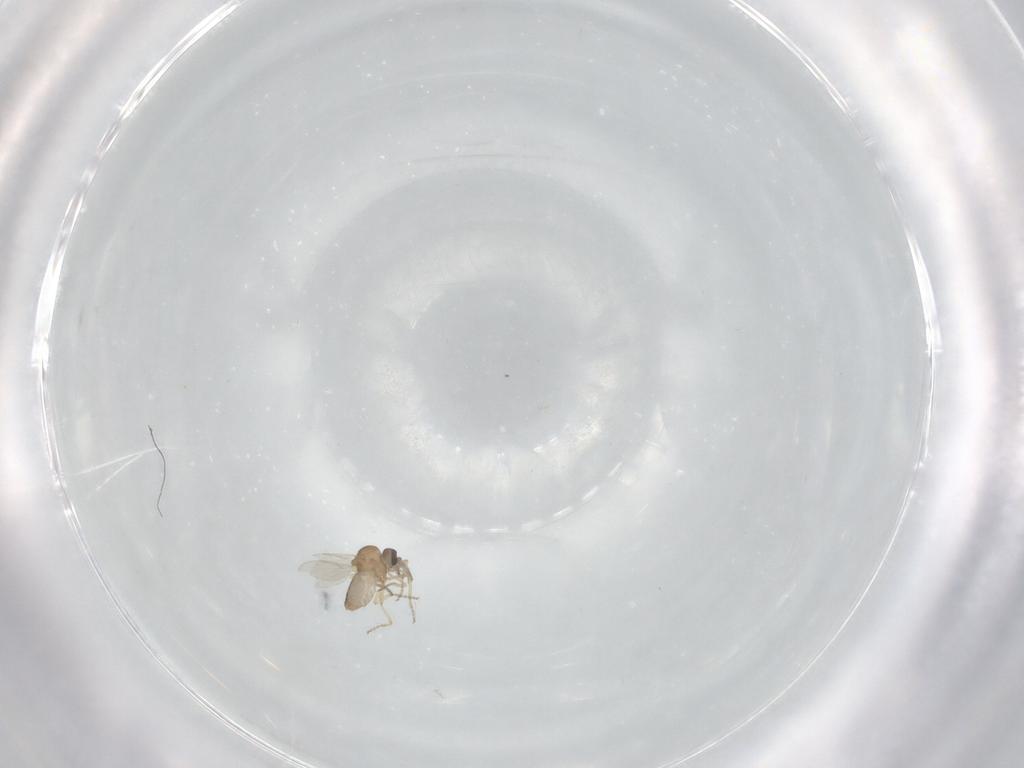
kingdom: Animalia
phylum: Arthropoda
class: Insecta
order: Diptera
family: Ceratopogonidae
